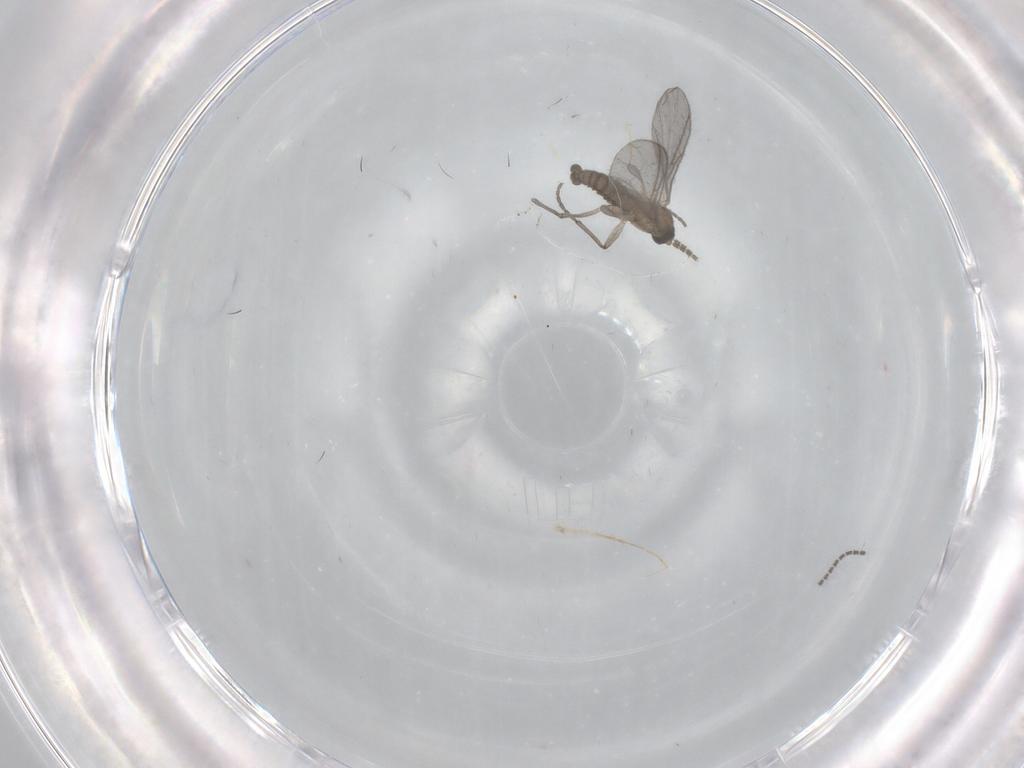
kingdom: Animalia
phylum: Arthropoda
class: Insecta
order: Diptera
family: Sciaridae
